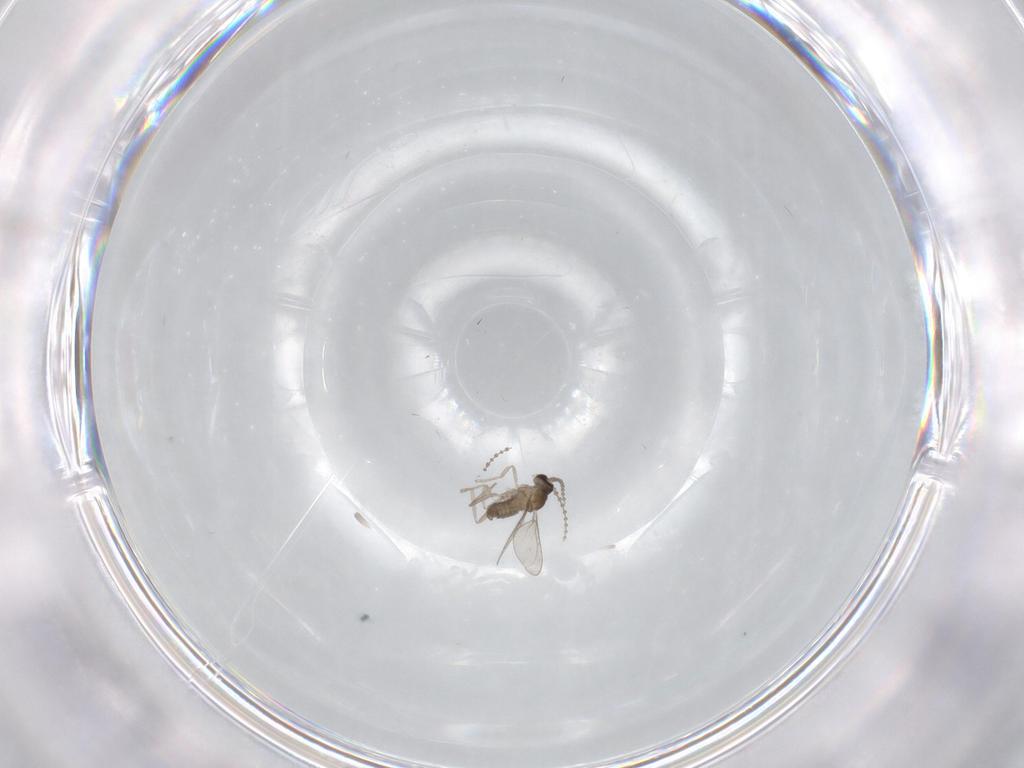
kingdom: Animalia
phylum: Arthropoda
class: Insecta
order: Diptera
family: Cecidomyiidae
